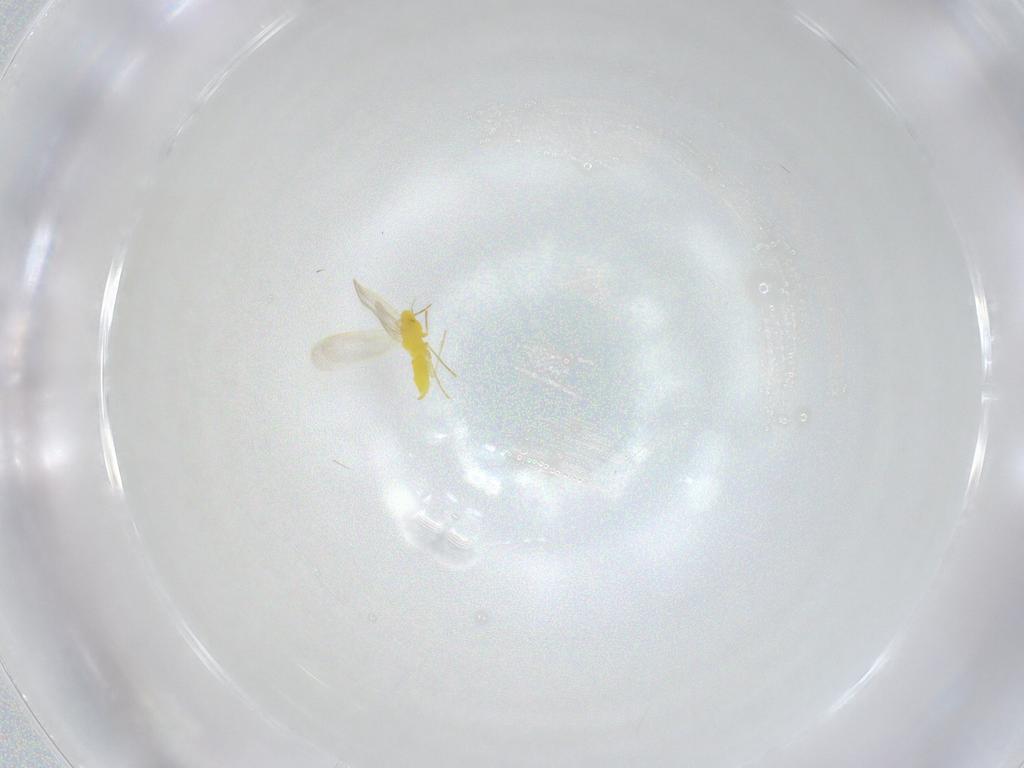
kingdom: Animalia
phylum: Arthropoda
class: Insecta
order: Hemiptera
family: Aleyrodidae
